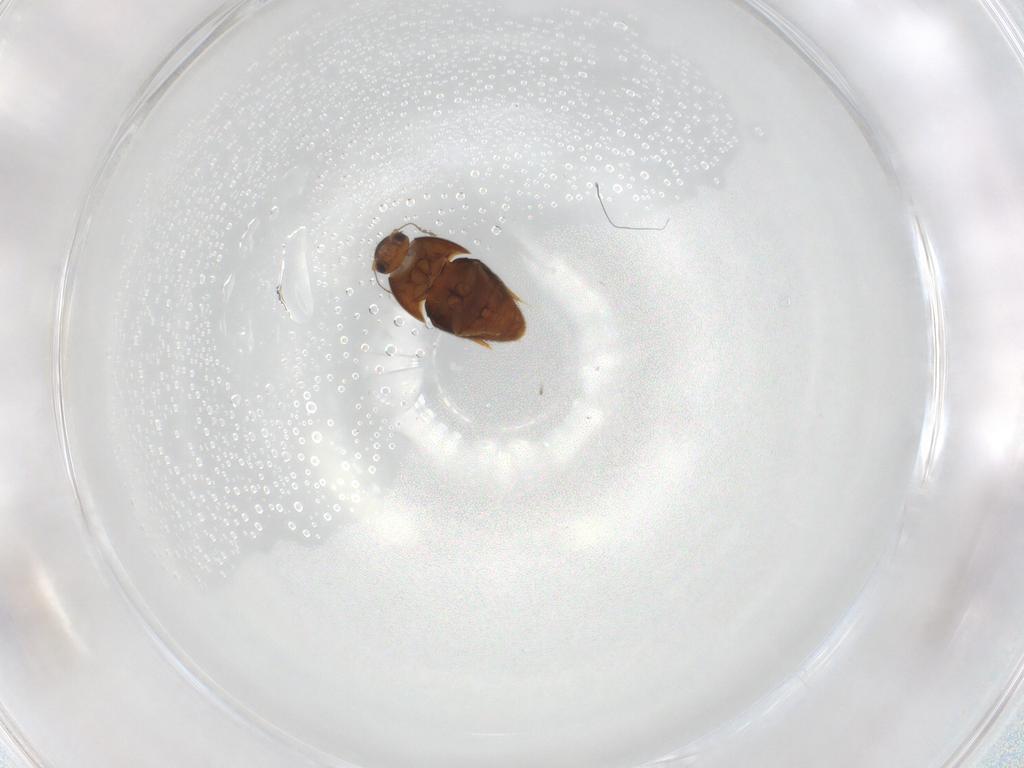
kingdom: Animalia
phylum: Arthropoda
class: Insecta
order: Coleoptera
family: Ptiliidae
